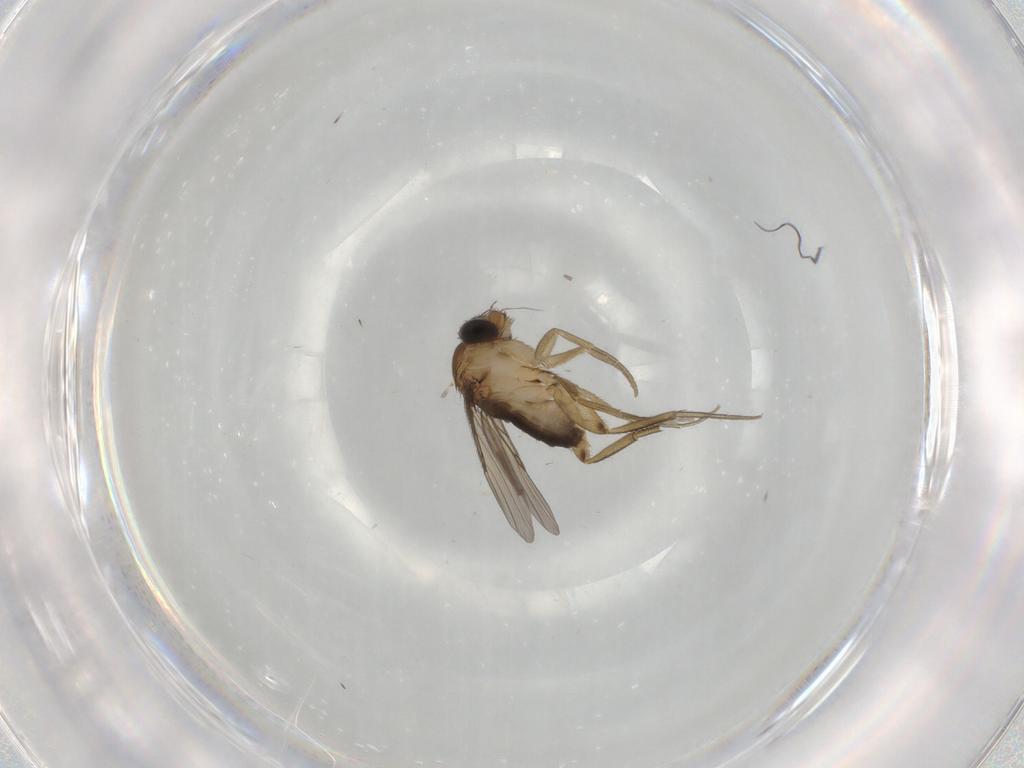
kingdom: Animalia
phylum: Arthropoda
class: Insecta
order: Diptera
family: Phoridae
